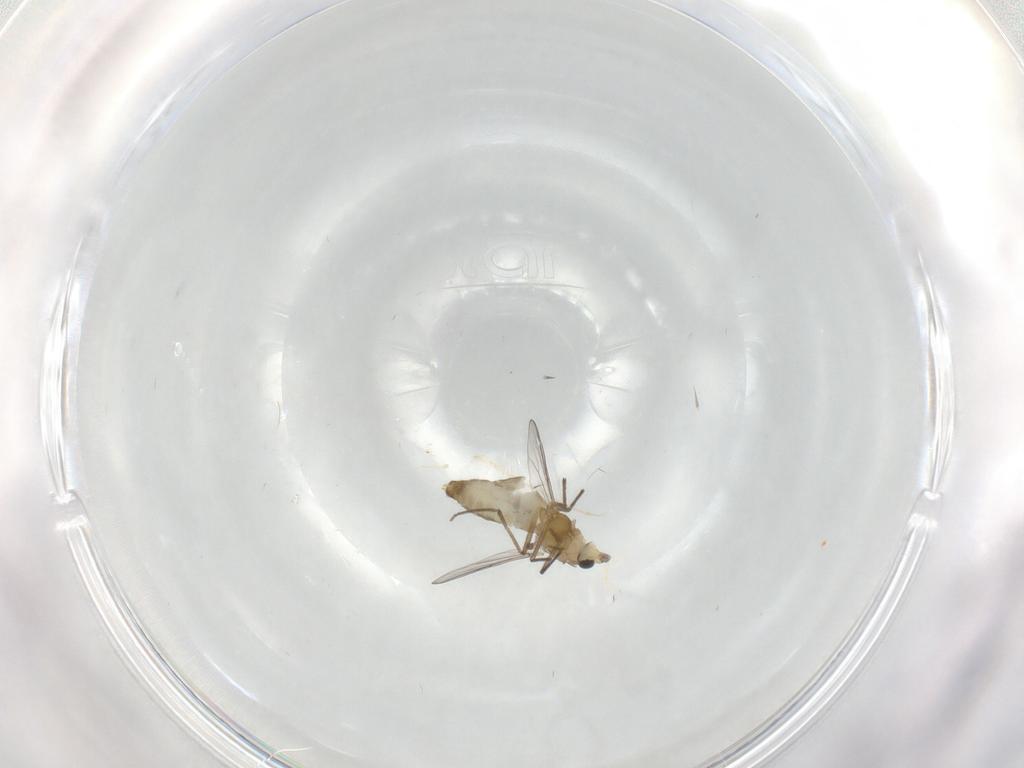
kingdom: Animalia
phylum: Arthropoda
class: Insecta
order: Diptera
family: Chironomidae
